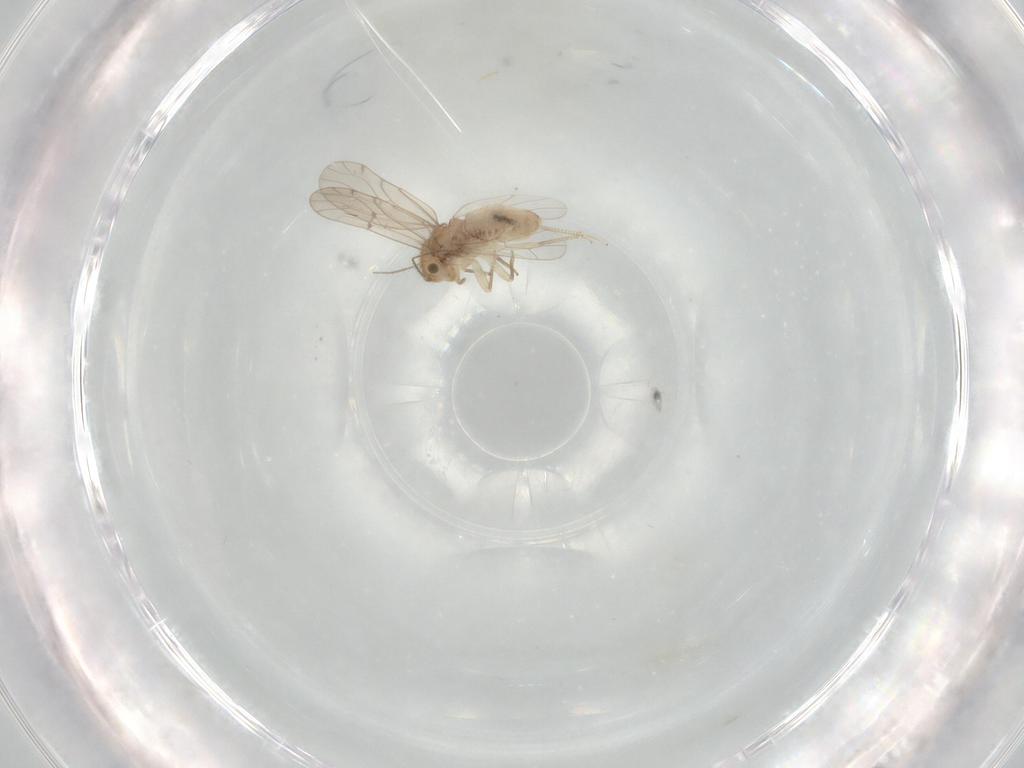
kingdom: Animalia
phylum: Arthropoda
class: Insecta
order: Psocodea
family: Ectopsocidae
